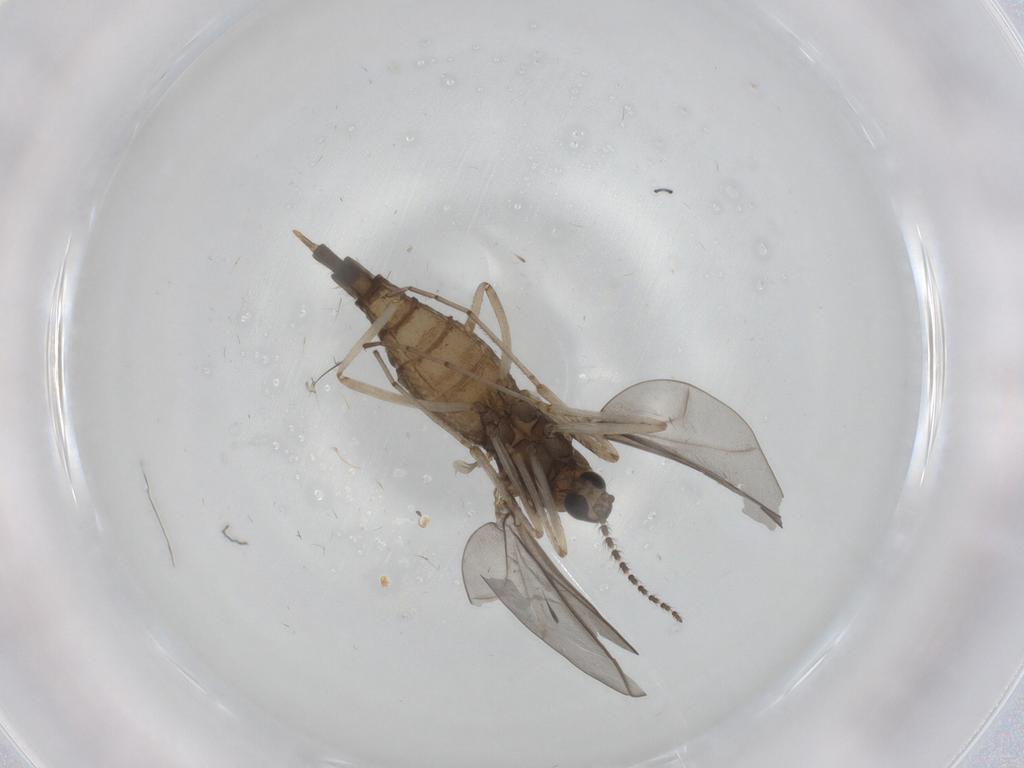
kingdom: Animalia
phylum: Arthropoda
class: Insecta
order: Diptera
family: Cecidomyiidae
